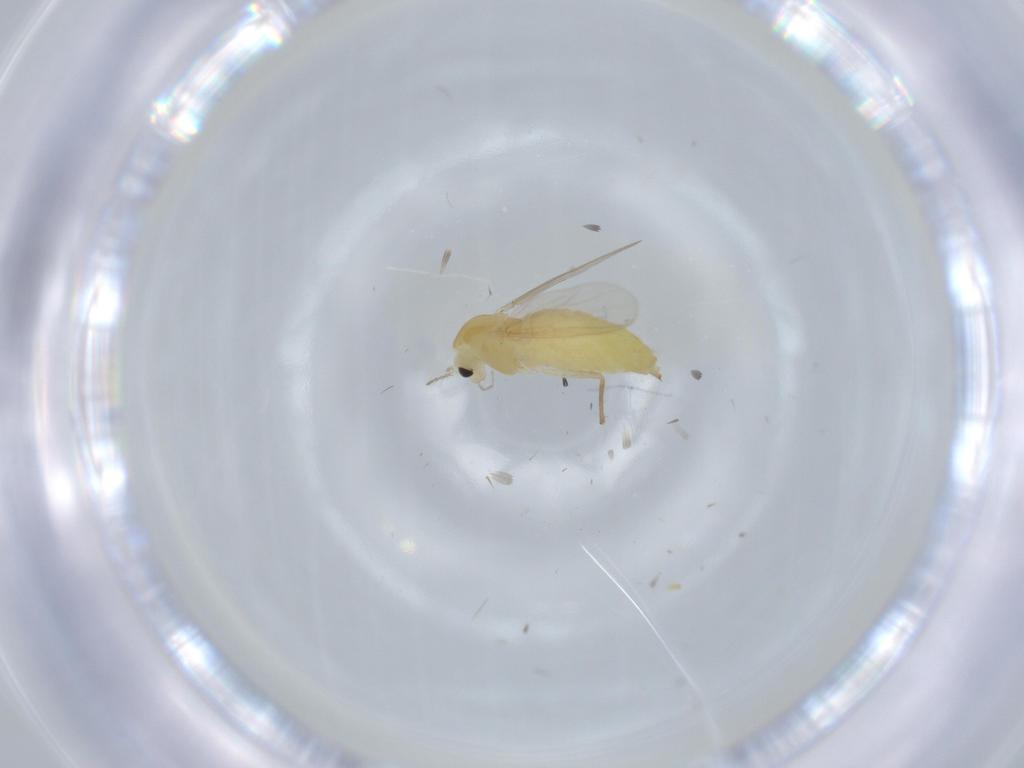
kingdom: Animalia
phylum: Arthropoda
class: Insecta
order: Diptera
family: Chironomidae
